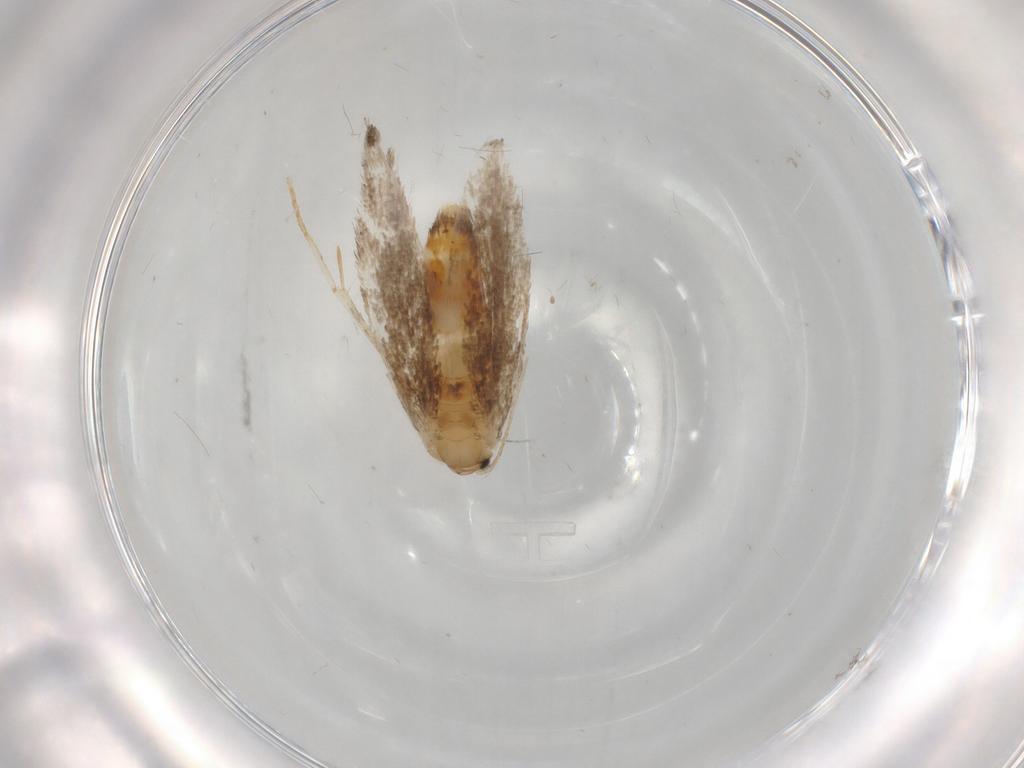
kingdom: Animalia
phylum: Arthropoda
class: Insecta
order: Lepidoptera
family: Incurvariidae
